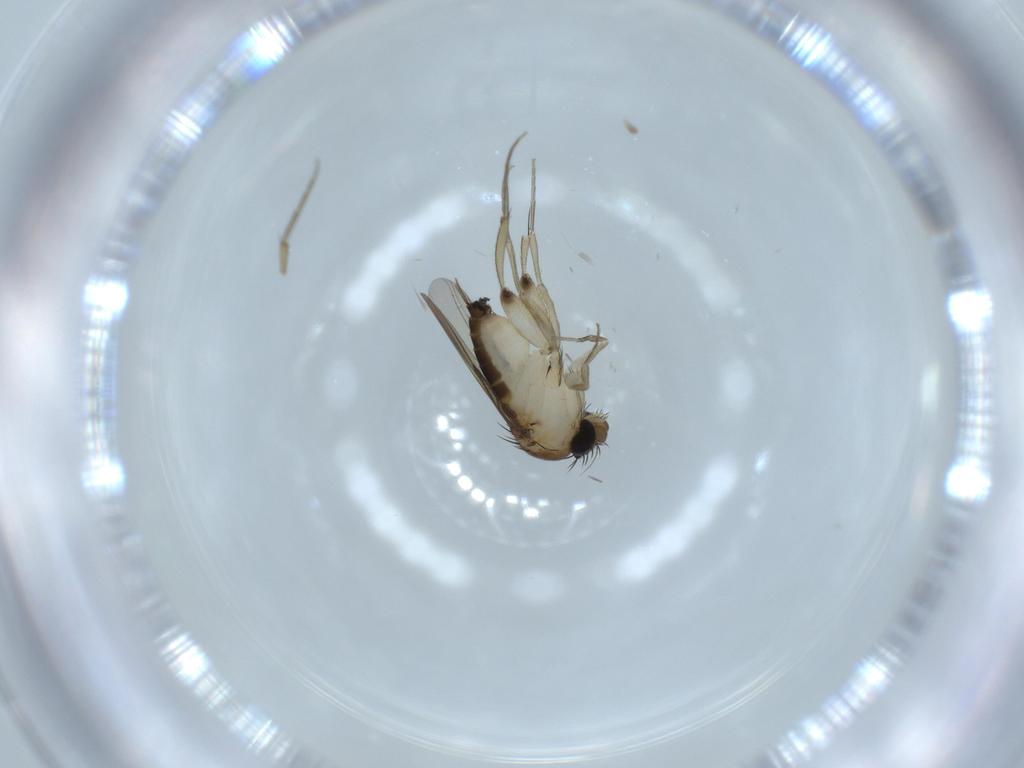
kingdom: Animalia
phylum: Arthropoda
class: Insecta
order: Diptera
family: Phoridae
